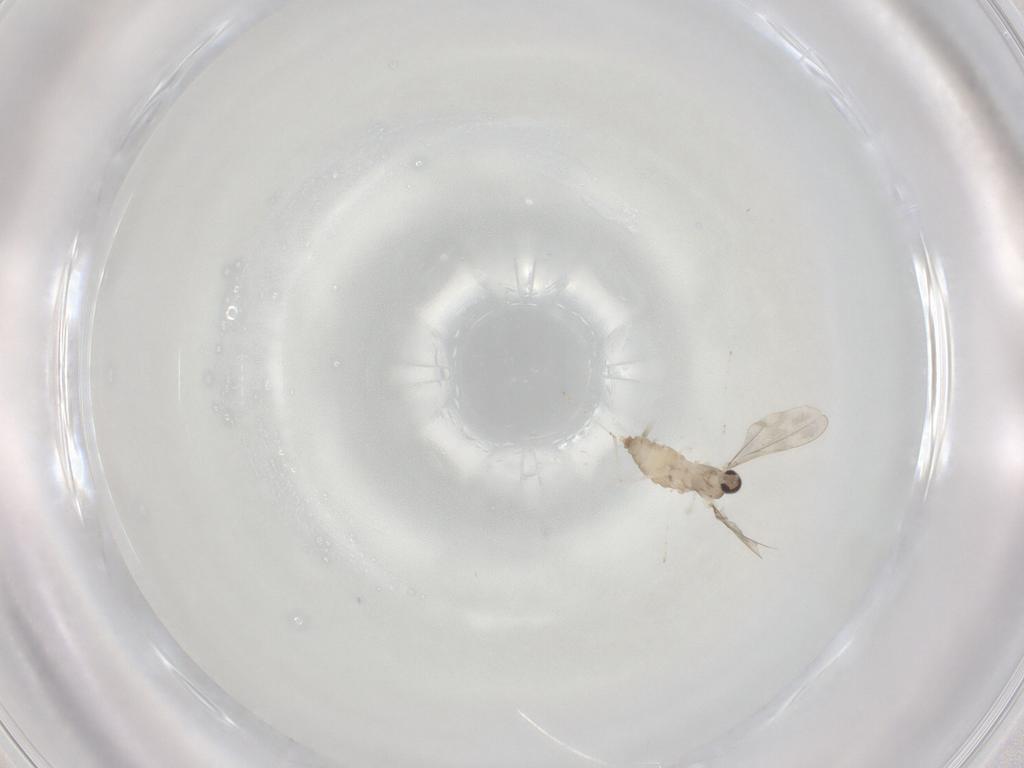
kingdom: Animalia
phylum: Arthropoda
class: Insecta
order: Diptera
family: Cecidomyiidae
